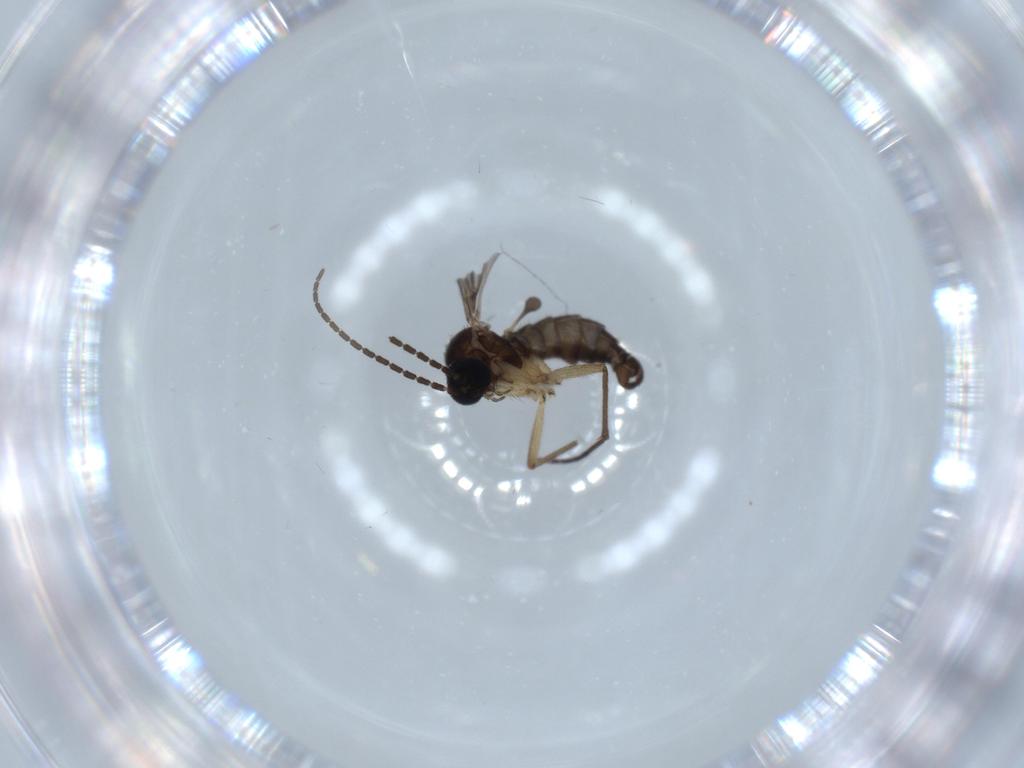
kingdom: Animalia
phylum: Arthropoda
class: Insecta
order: Diptera
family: Sciaridae
